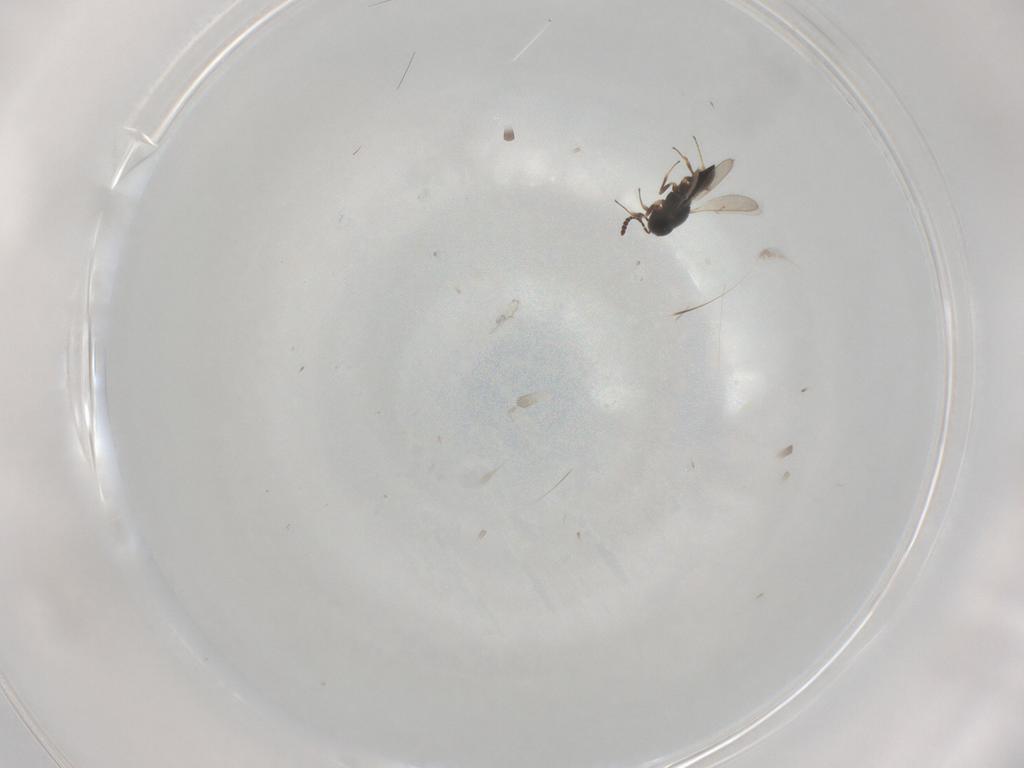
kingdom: Animalia
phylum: Arthropoda
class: Insecta
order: Hymenoptera
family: Scelionidae
